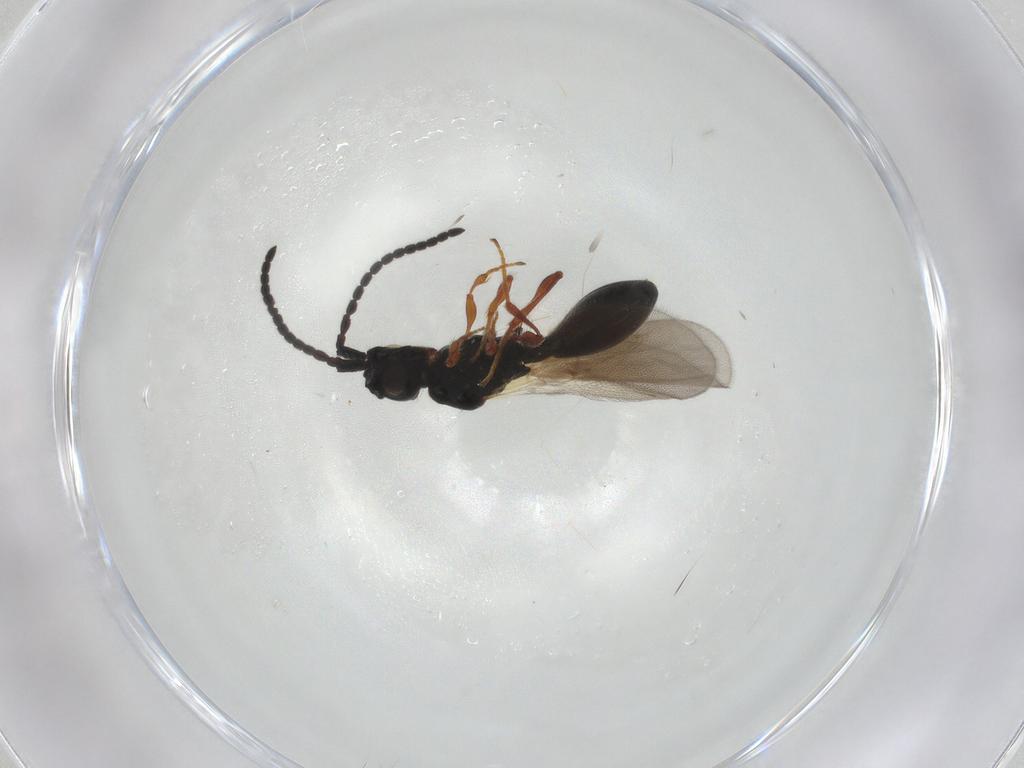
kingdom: Animalia
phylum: Arthropoda
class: Insecta
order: Hymenoptera
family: Diapriidae
